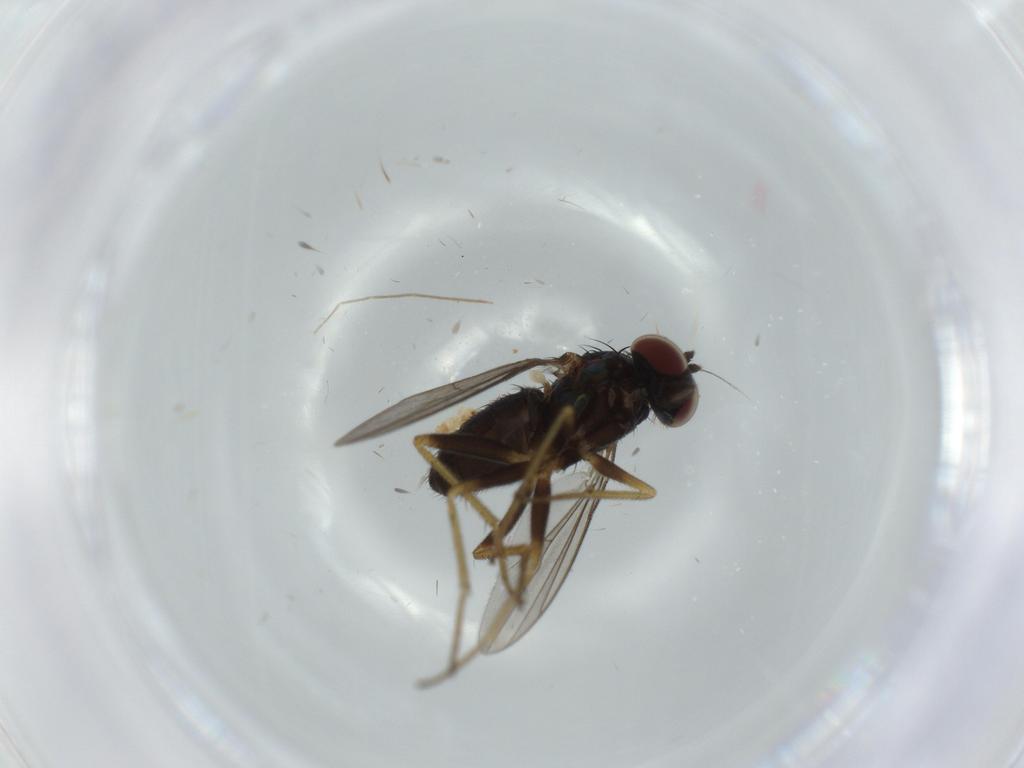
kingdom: Animalia
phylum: Arthropoda
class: Insecta
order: Diptera
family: Chironomidae
